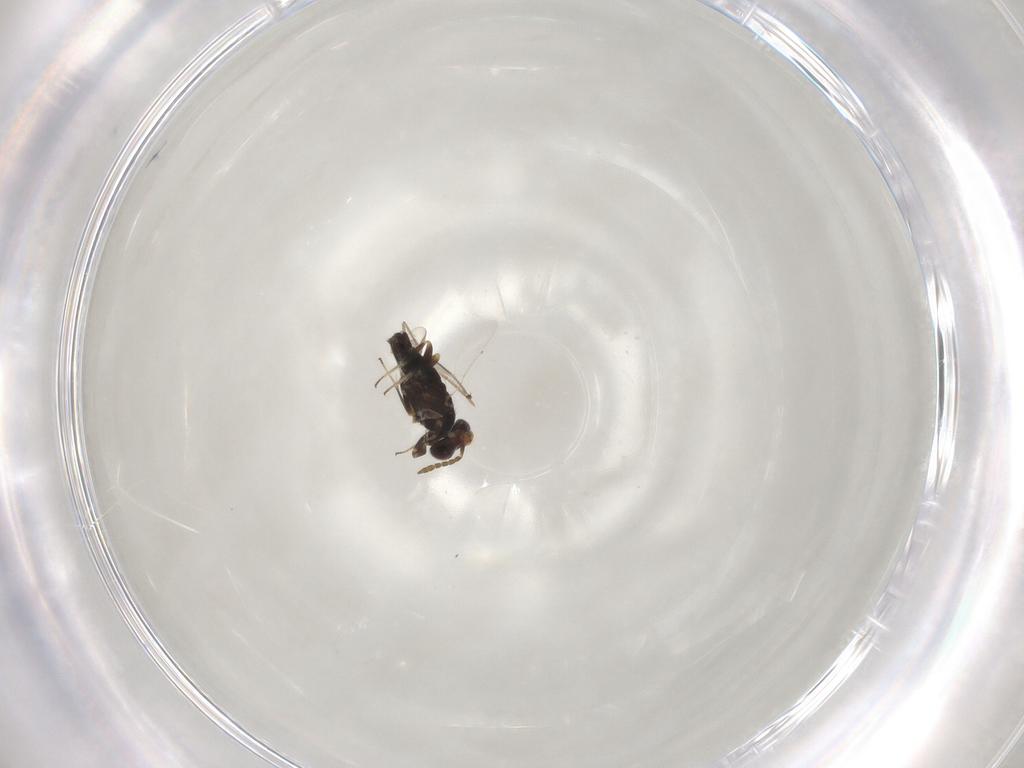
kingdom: Animalia
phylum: Arthropoda
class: Insecta
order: Hymenoptera
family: Aphelinidae
